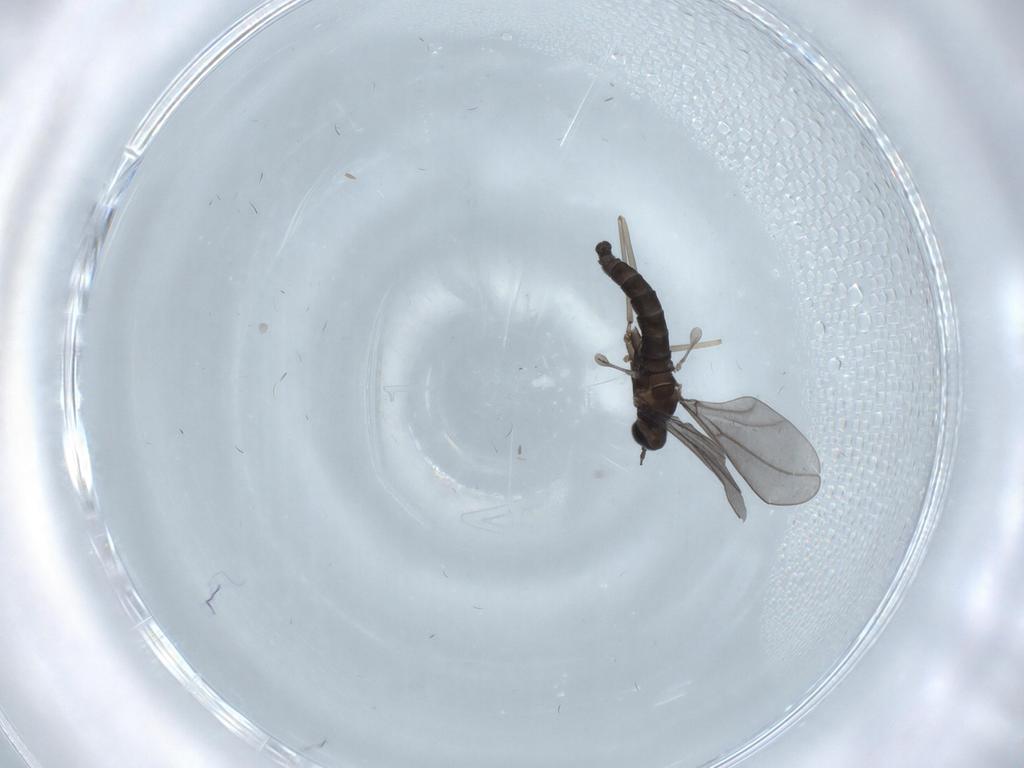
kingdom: Animalia
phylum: Arthropoda
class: Insecta
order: Diptera
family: Cecidomyiidae
